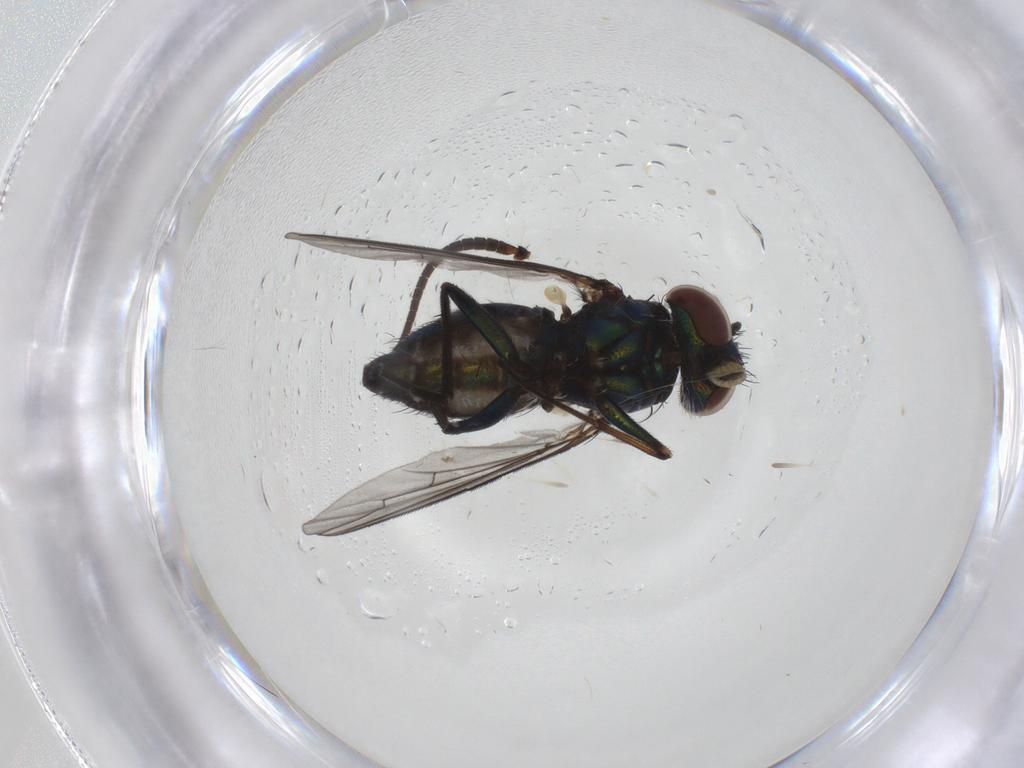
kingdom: Animalia
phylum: Arthropoda
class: Insecta
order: Diptera
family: Dolichopodidae
